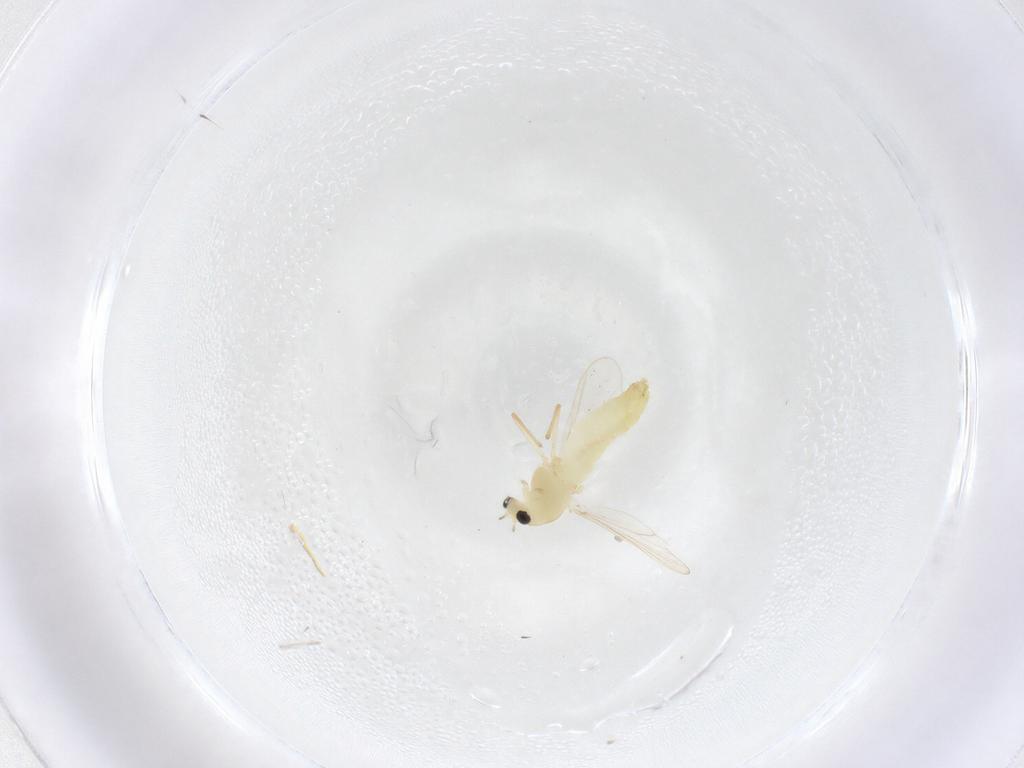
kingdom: Animalia
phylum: Arthropoda
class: Insecta
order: Diptera
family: Chironomidae
